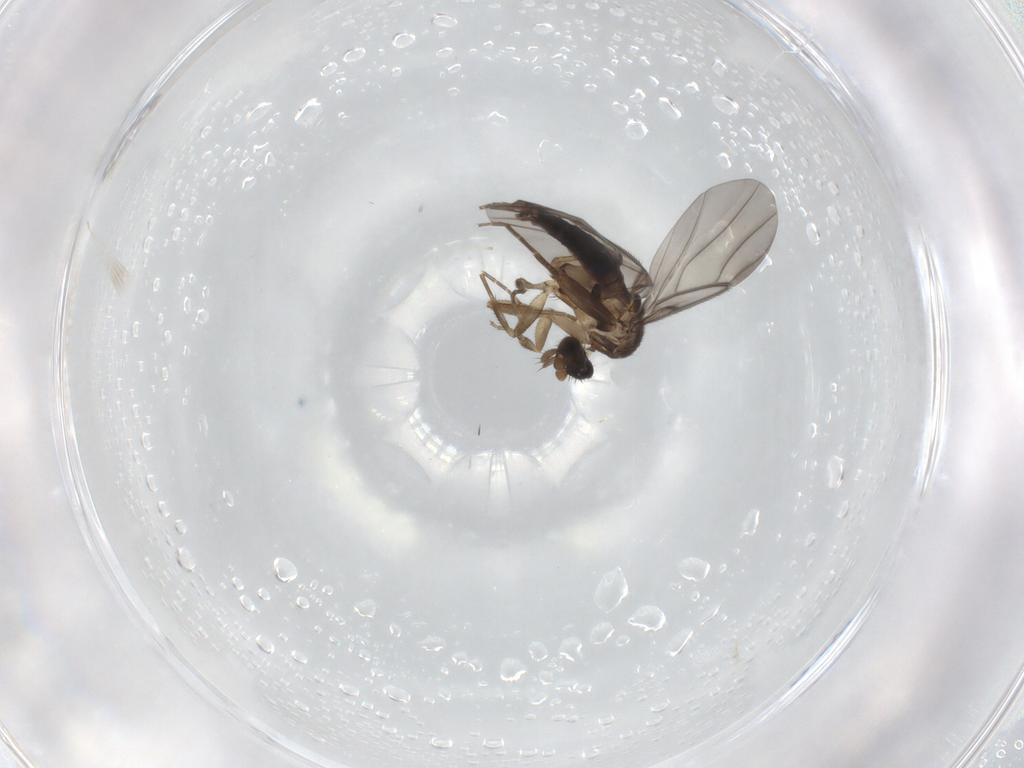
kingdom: Animalia
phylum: Arthropoda
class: Insecta
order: Diptera
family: Phoridae
